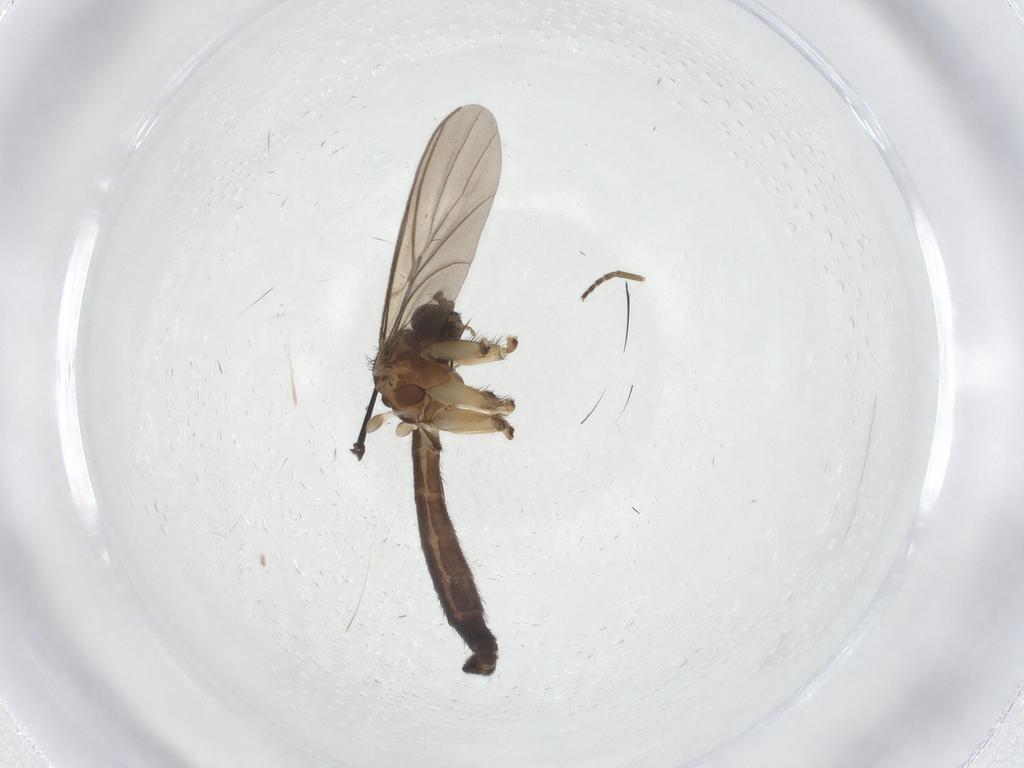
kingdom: Animalia
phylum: Arthropoda
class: Insecta
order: Diptera
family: Keroplatidae
